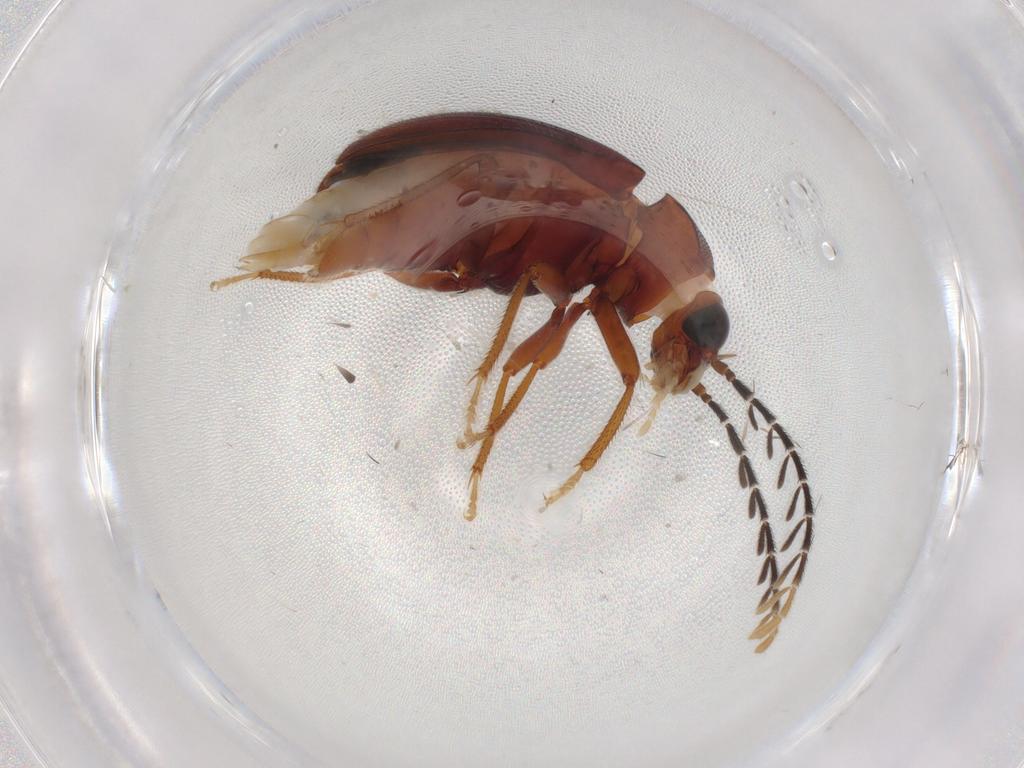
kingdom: Animalia
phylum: Arthropoda
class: Insecta
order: Coleoptera
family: Ptilodactylidae
